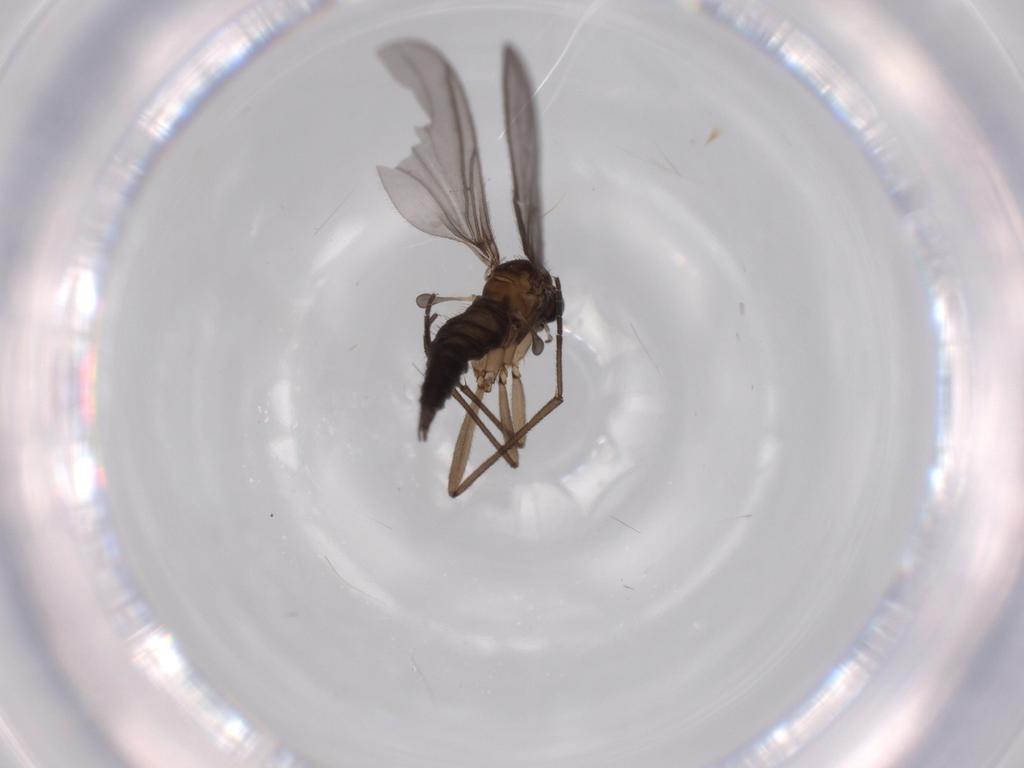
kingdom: Animalia
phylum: Arthropoda
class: Insecta
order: Diptera
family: Sciaridae
